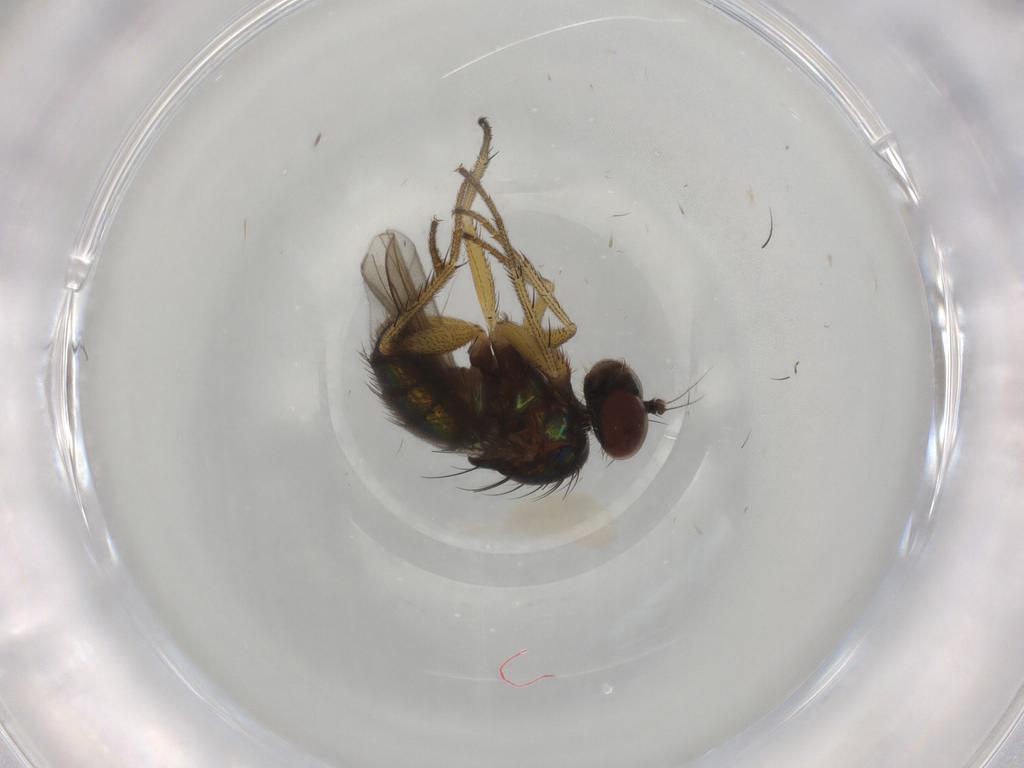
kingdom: Animalia
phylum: Arthropoda
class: Insecta
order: Diptera
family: Dolichopodidae
